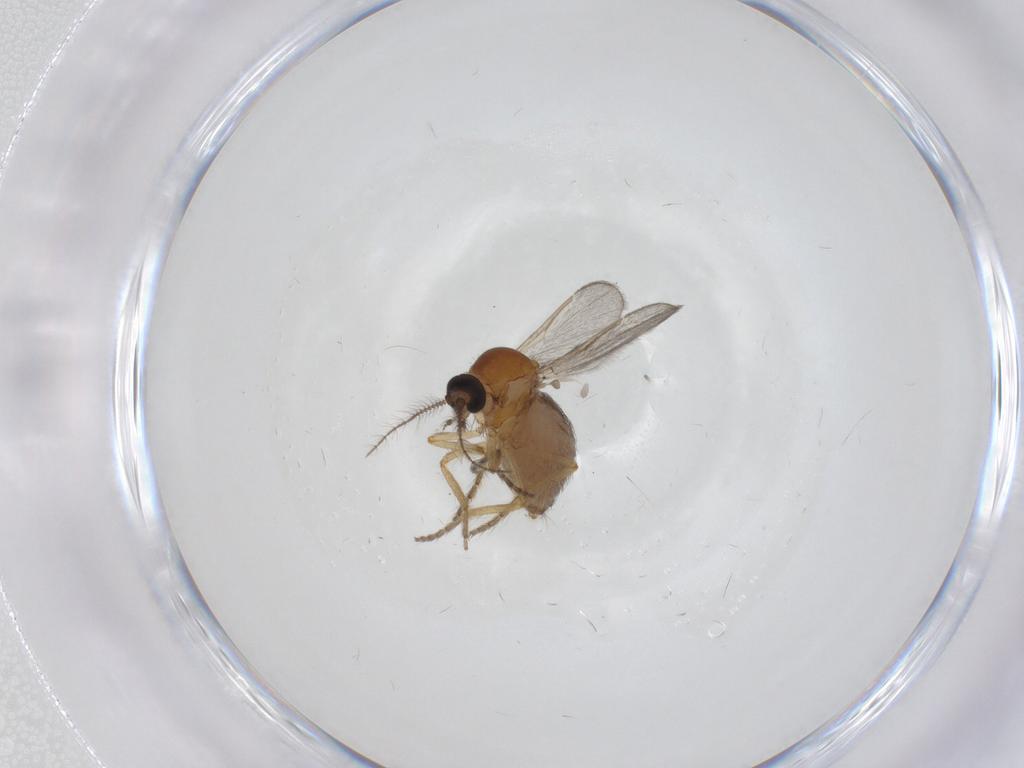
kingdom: Animalia
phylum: Arthropoda
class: Insecta
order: Diptera
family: Ceratopogonidae
